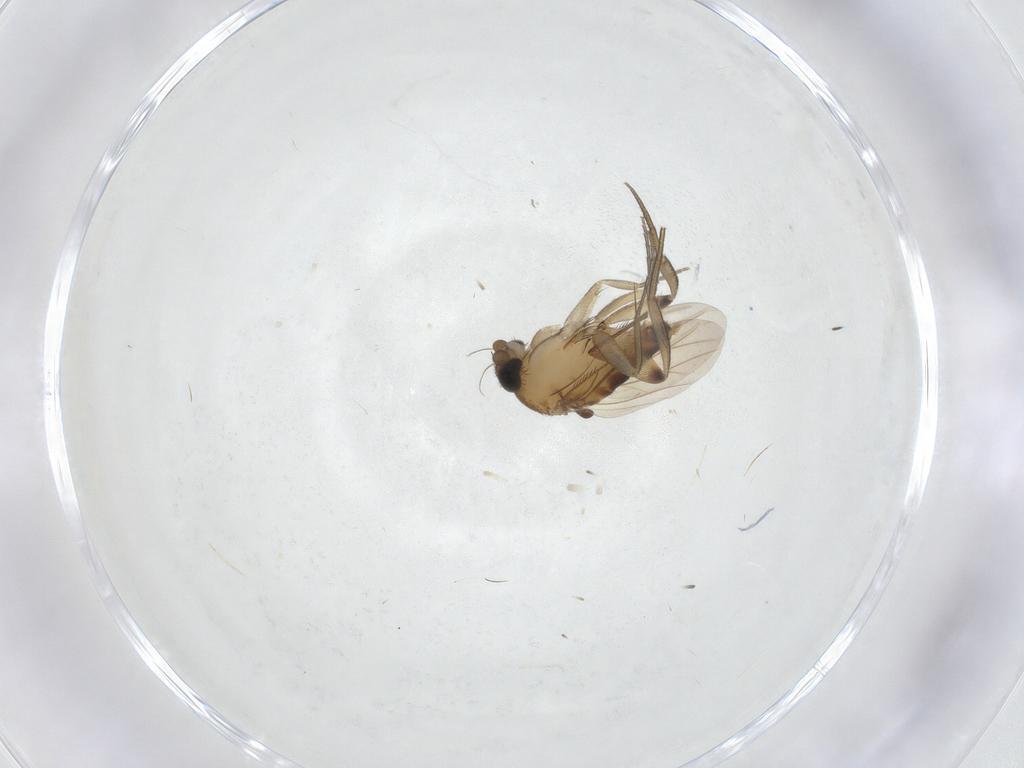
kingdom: Animalia
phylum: Arthropoda
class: Insecta
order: Diptera
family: Phoridae
